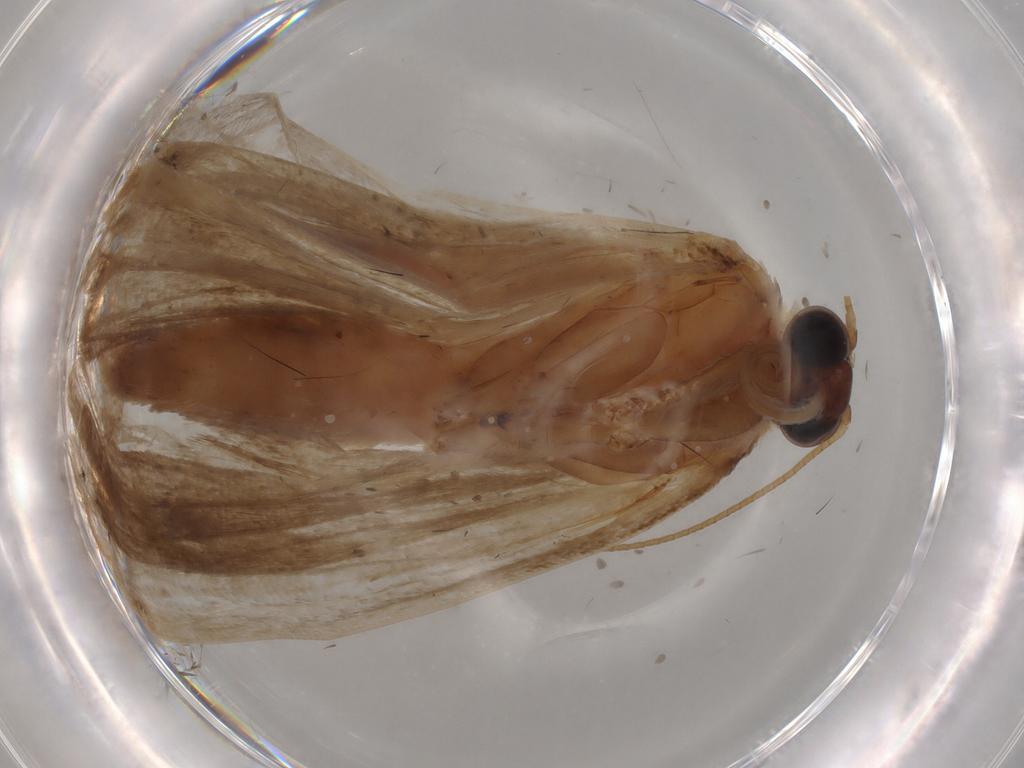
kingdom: Animalia
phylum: Arthropoda
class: Insecta
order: Lepidoptera
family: Crambidae
